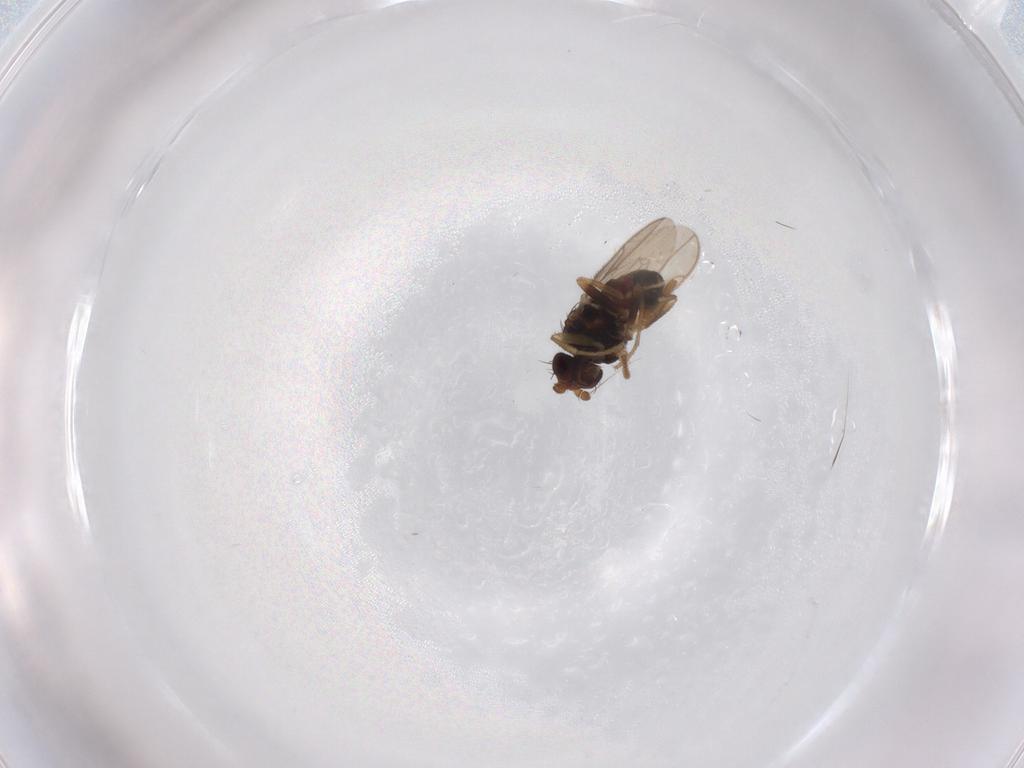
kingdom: Animalia
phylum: Arthropoda
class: Insecta
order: Diptera
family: Sphaeroceridae
